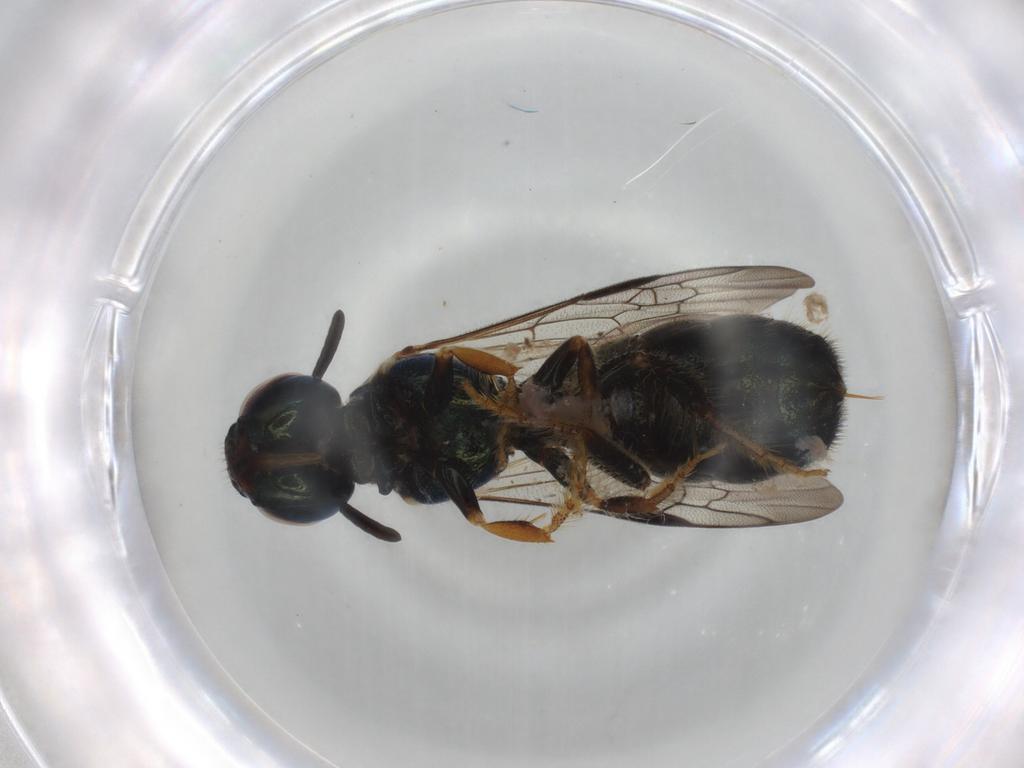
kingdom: Animalia
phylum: Arthropoda
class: Insecta
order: Hymenoptera
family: Apidae
